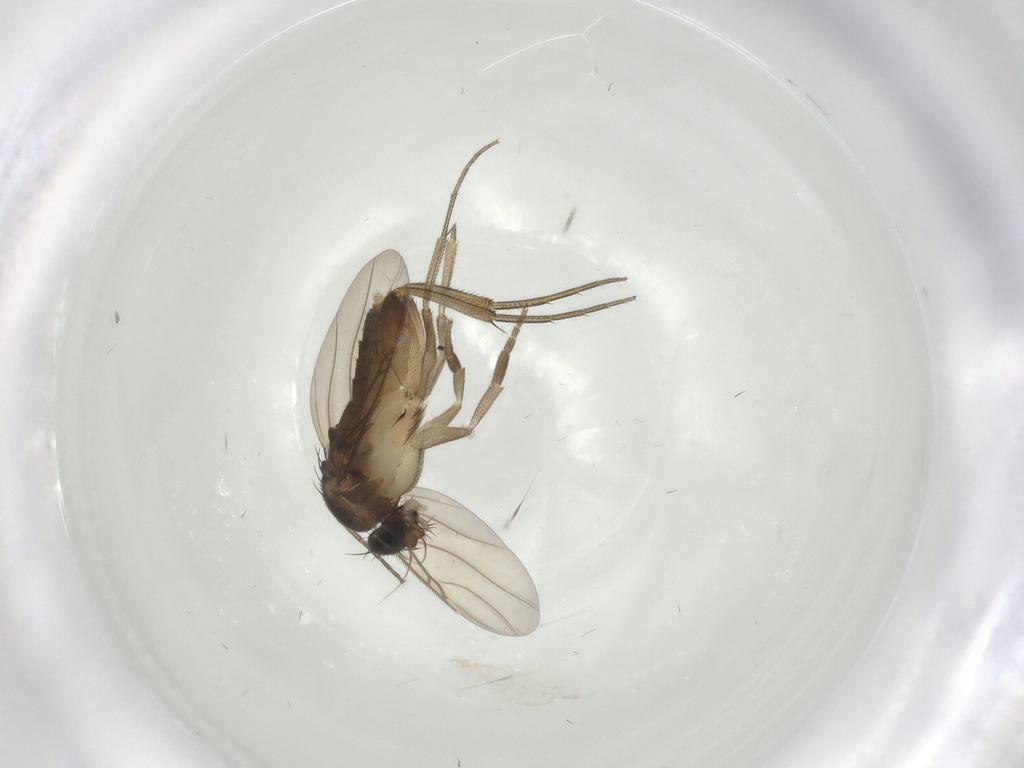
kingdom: Animalia
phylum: Arthropoda
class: Insecta
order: Diptera
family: Phoridae
